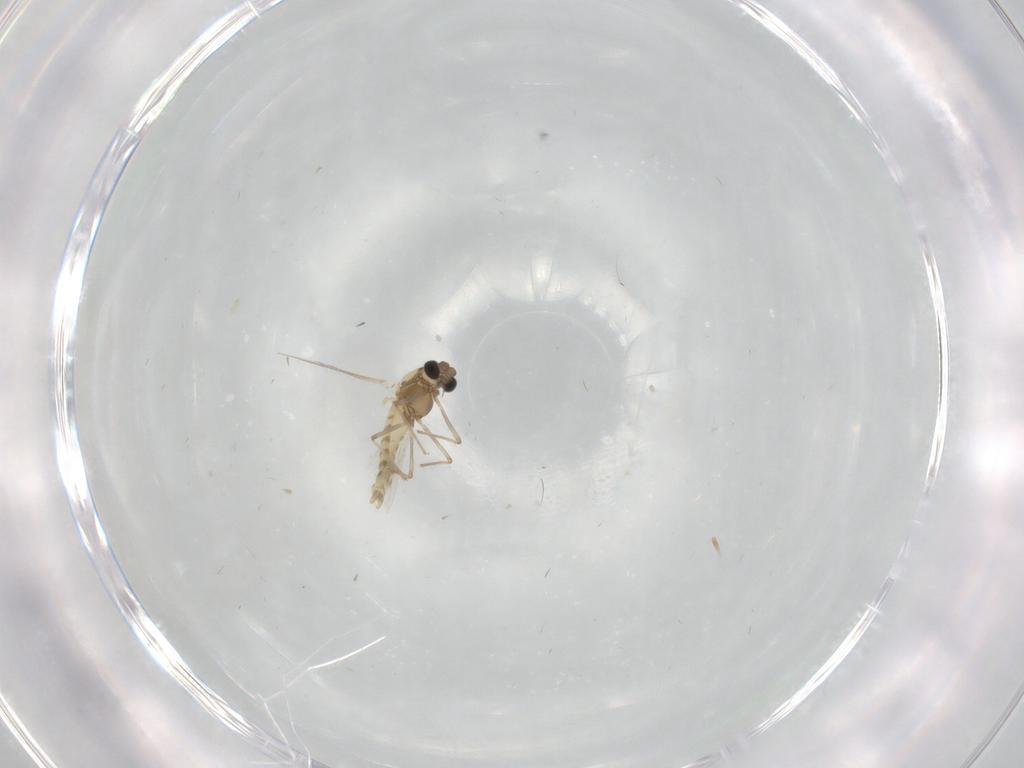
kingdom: Animalia
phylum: Arthropoda
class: Insecta
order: Diptera
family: Chironomidae
